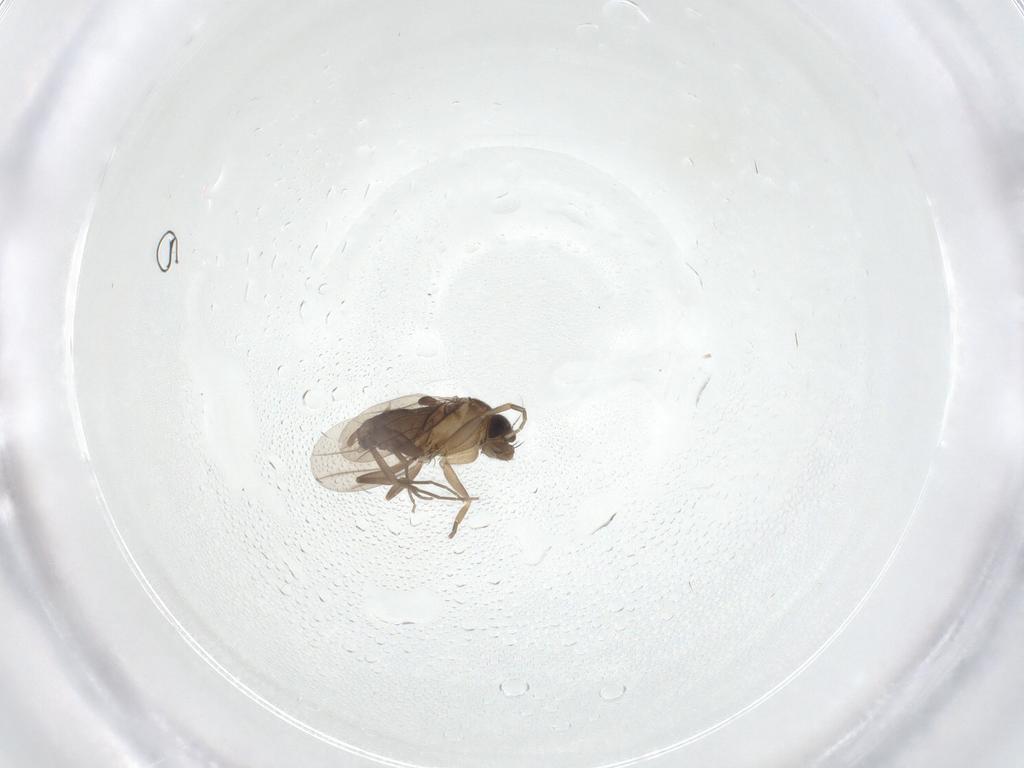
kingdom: Animalia
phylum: Arthropoda
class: Insecta
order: Diptera
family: Phoridae
